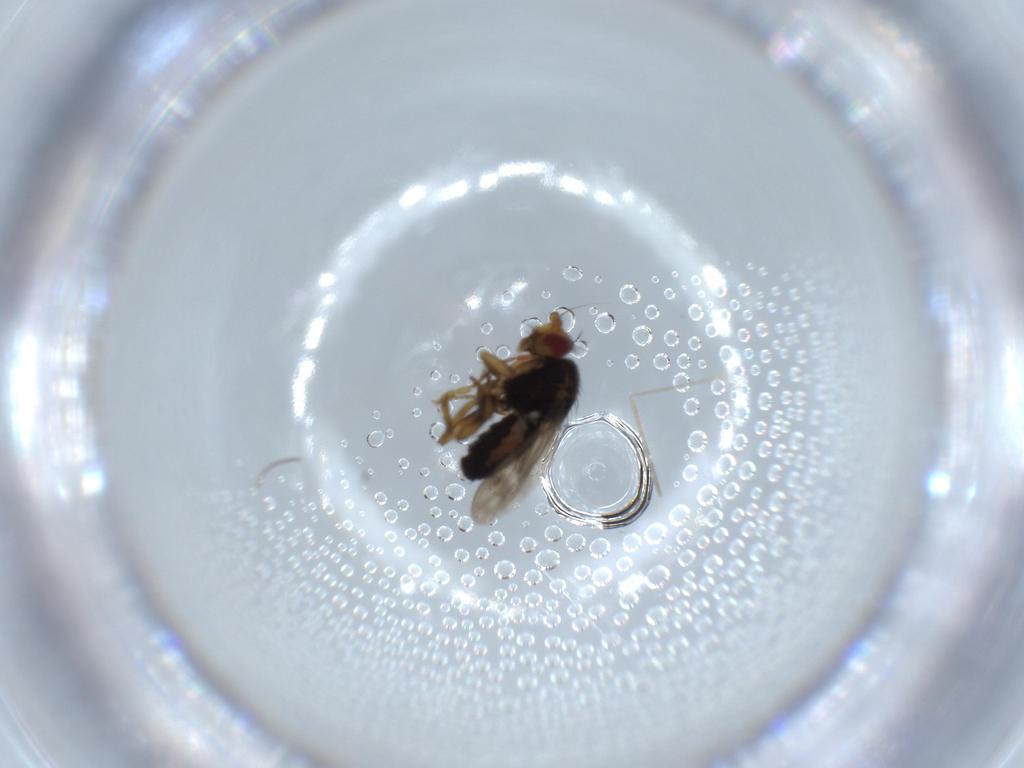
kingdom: Animalia
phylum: Arthropoda
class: Insecta
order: Diptera
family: Sphaeroceridae
